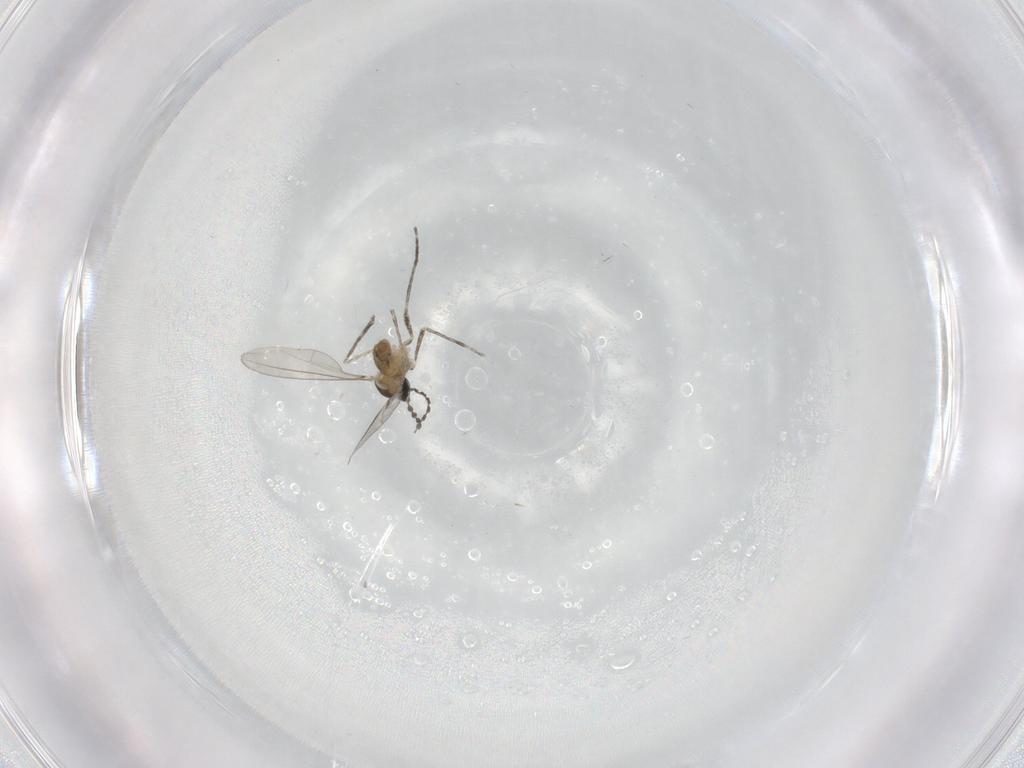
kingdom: Animalia
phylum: Arthropoda
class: Insecta
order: Diptera
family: Cecidomyiidae
